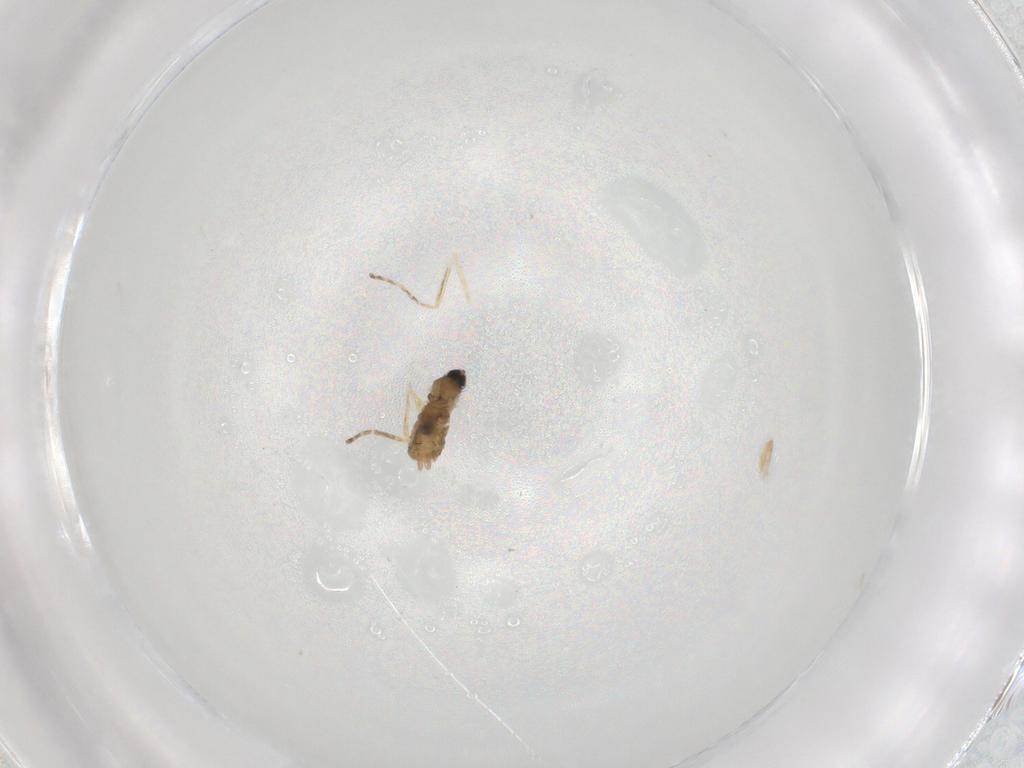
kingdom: Animalia
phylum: Arthropoda
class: Insecta
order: Diptera
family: Cecidomyiidae
